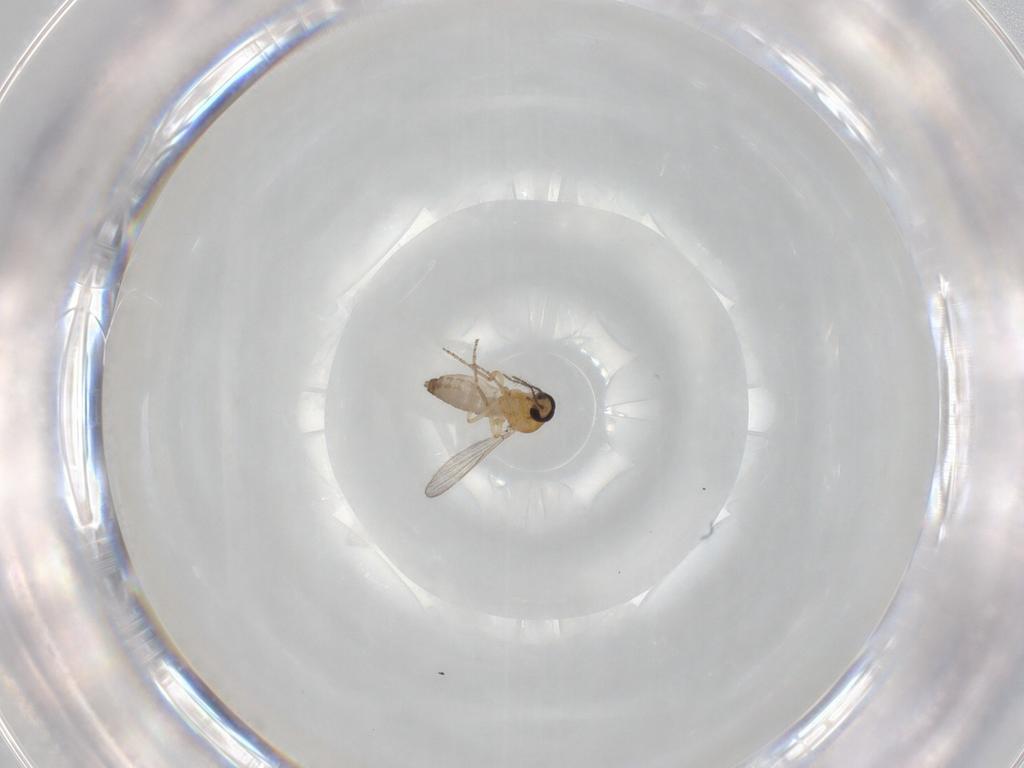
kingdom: Animalia
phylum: Arthropoda
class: Insecta
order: Diptera
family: Ceratopogonidae
